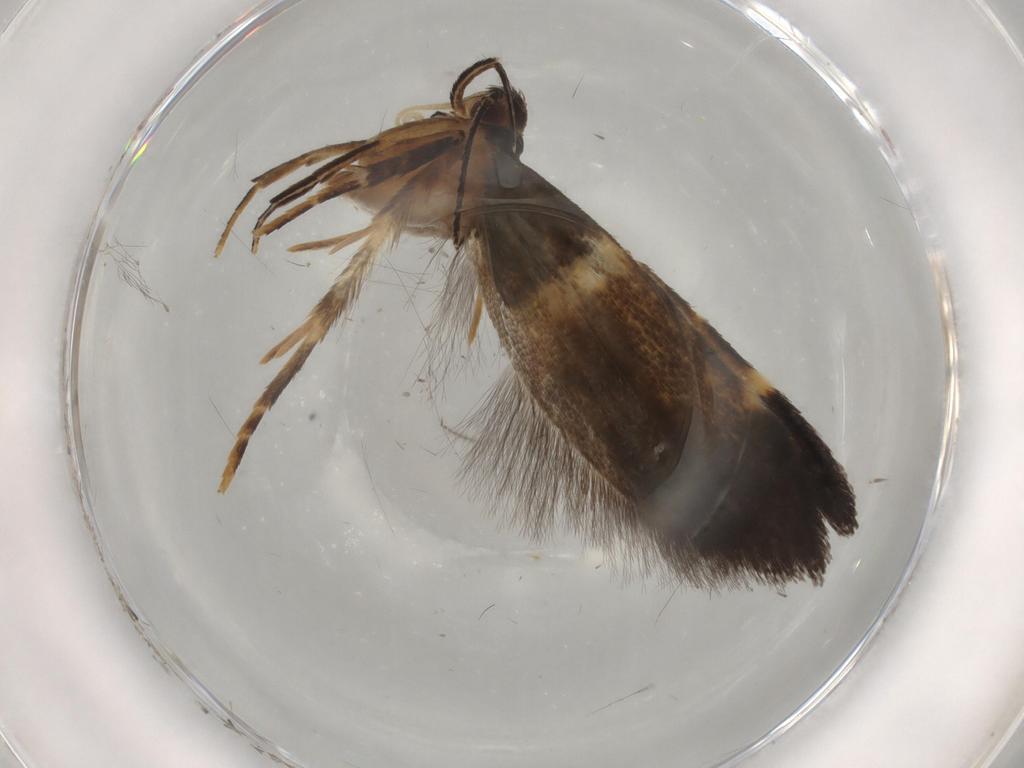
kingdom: Animalia
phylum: Arthropoda
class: Insecta
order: Lepidoptera
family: Cosmopterigidae
